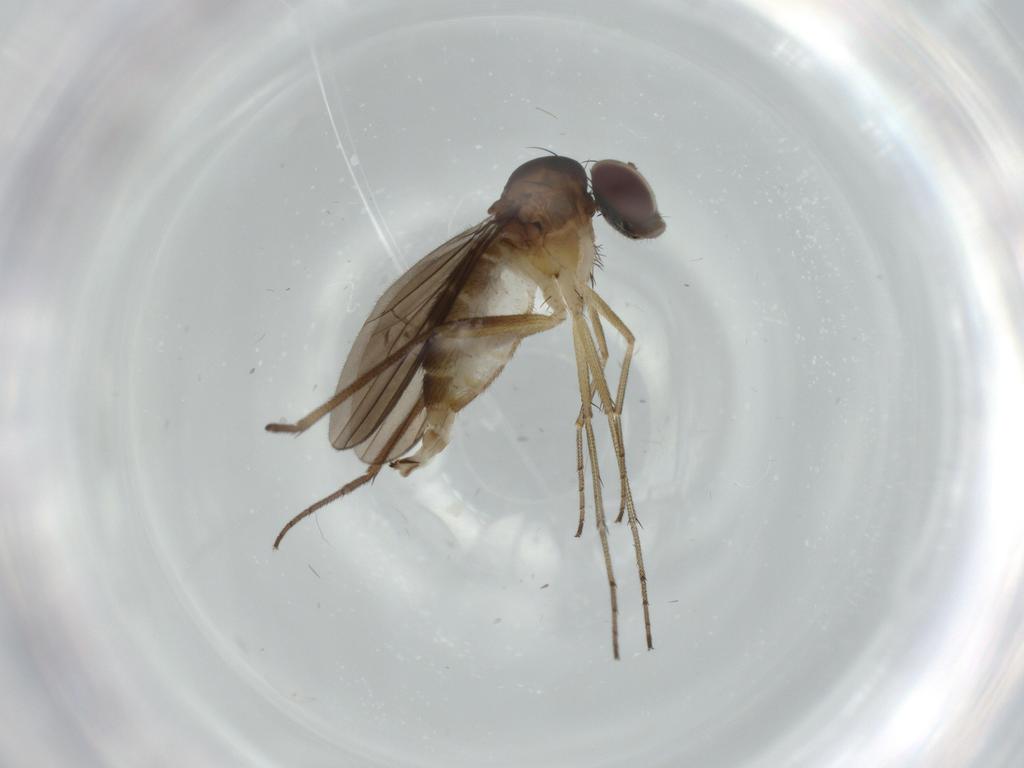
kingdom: Animalia
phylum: Arthropoda
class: Insecta
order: Diptera
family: Dolichopodidae
